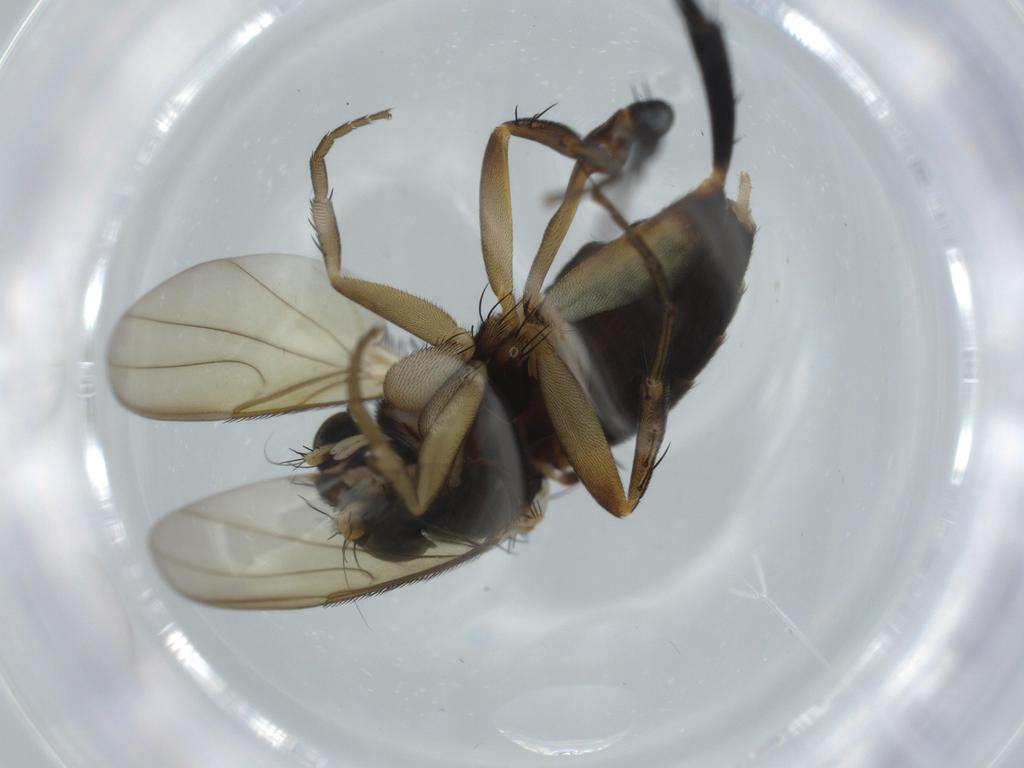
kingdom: Animalia
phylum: Arthropoda
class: Insecta
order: Diptera
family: Phoridae
